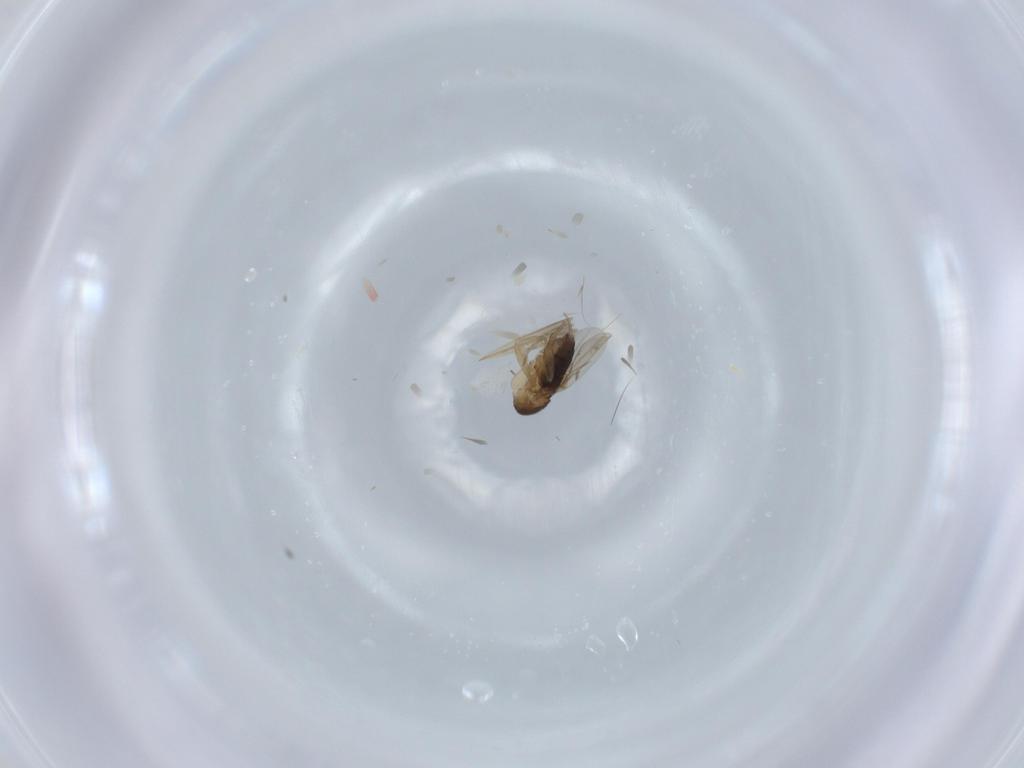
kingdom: Animalia
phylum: Arthropoda
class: Insecta
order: Diptera
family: Phoridae
